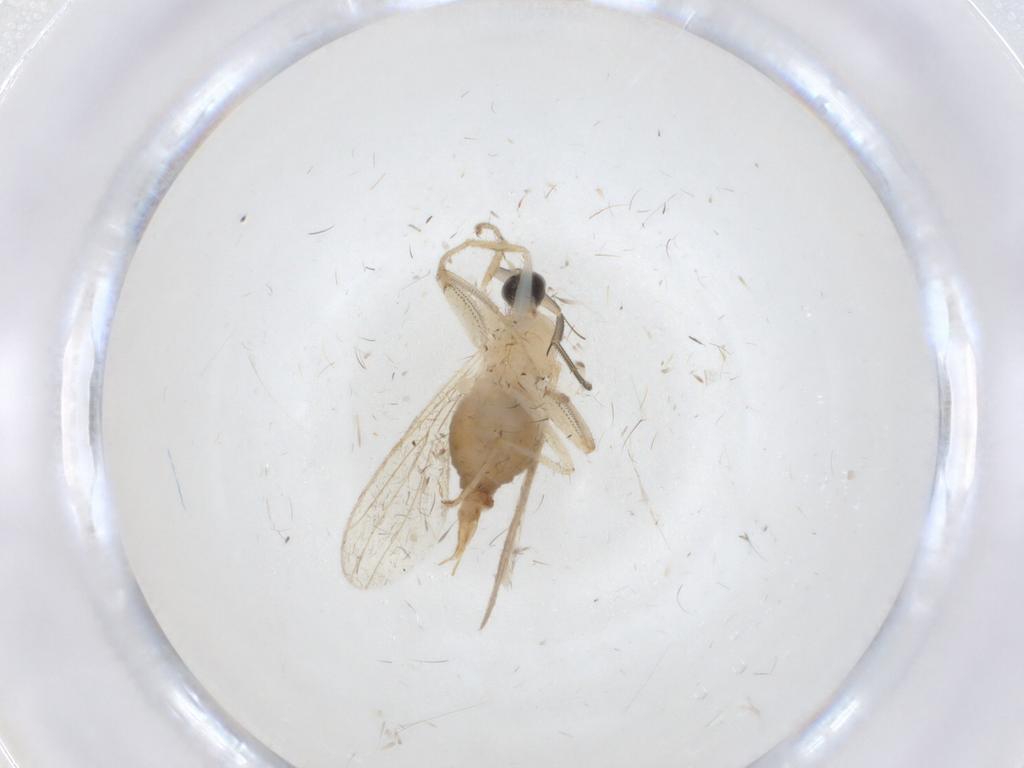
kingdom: Animalia
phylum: Arthropoda
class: Insecta
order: Diptera
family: Hybotidae
